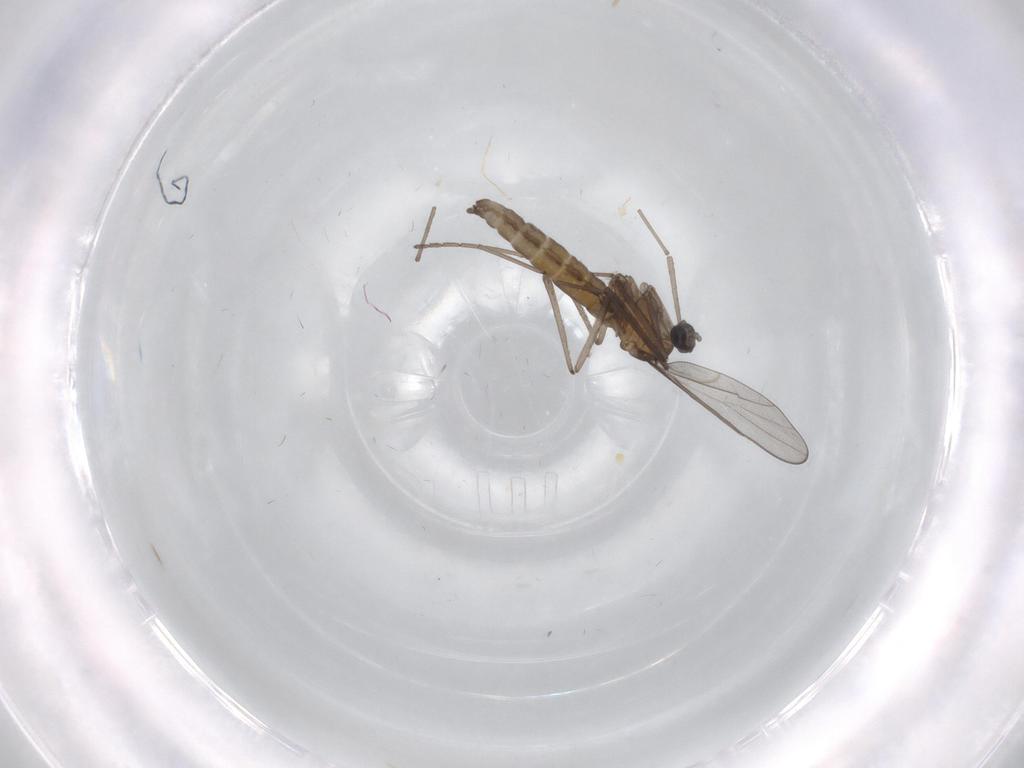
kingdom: Animalia
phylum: Arthropoda
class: Insecta
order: Diptera
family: Cecidomyiidae
